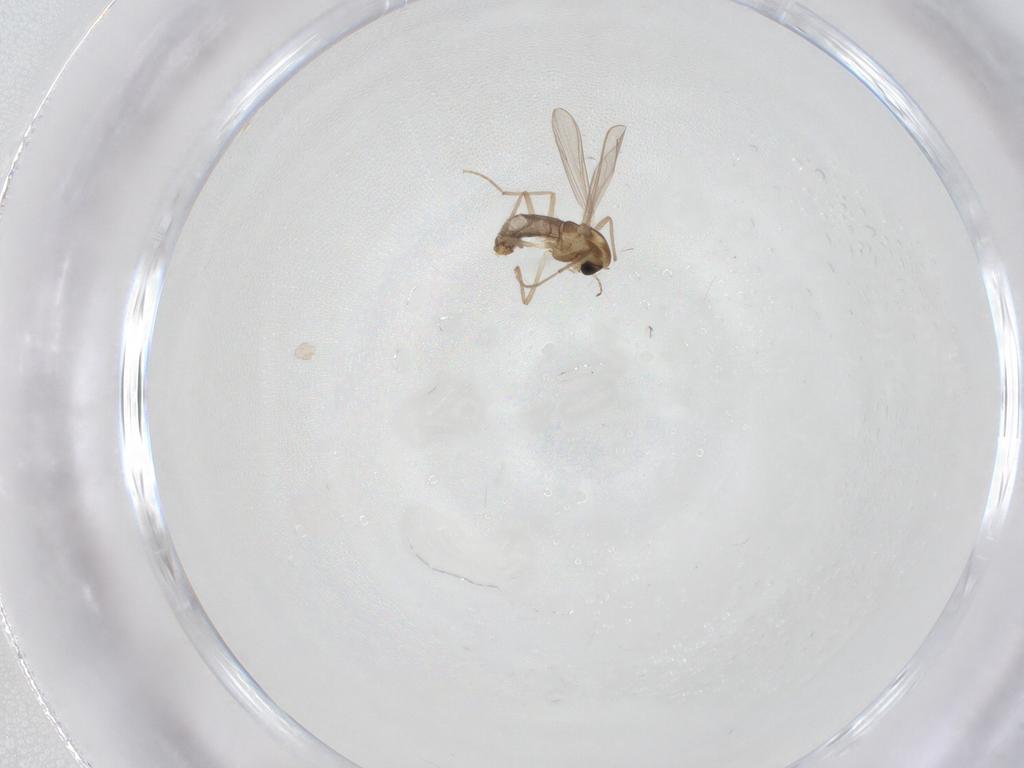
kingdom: Animalia
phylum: Arthropoda
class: Insecta
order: Diptera
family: Mycetophilidae
